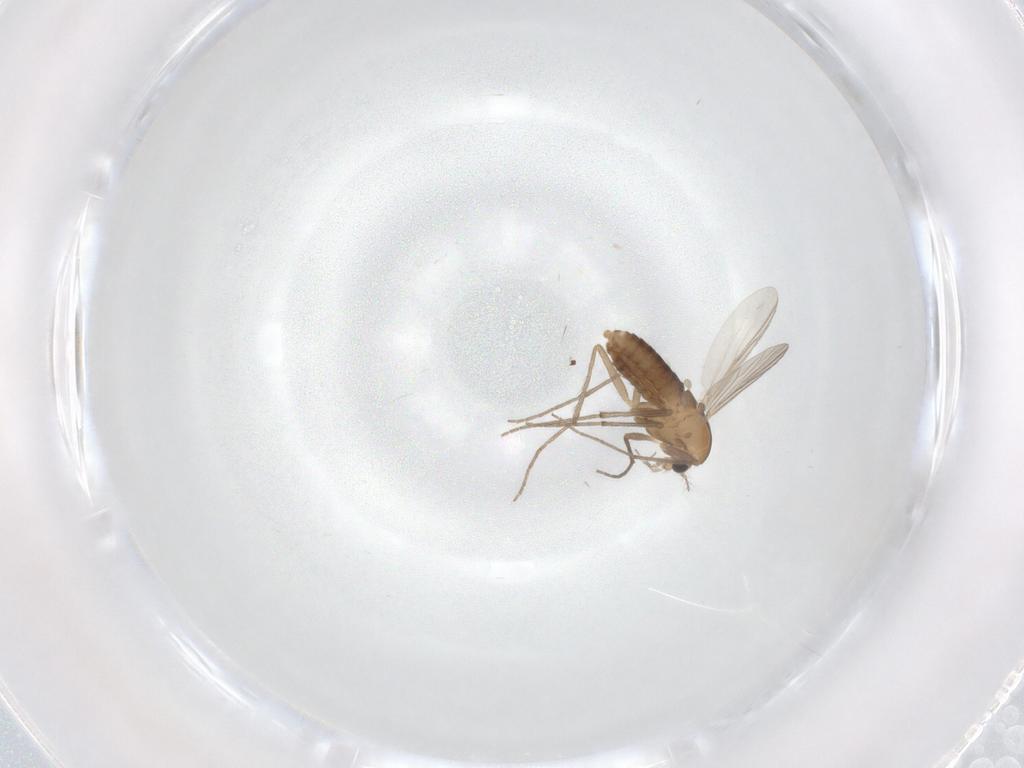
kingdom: Animalia
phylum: Arthropoda
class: Insecta
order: Diptera
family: Chironomidae
